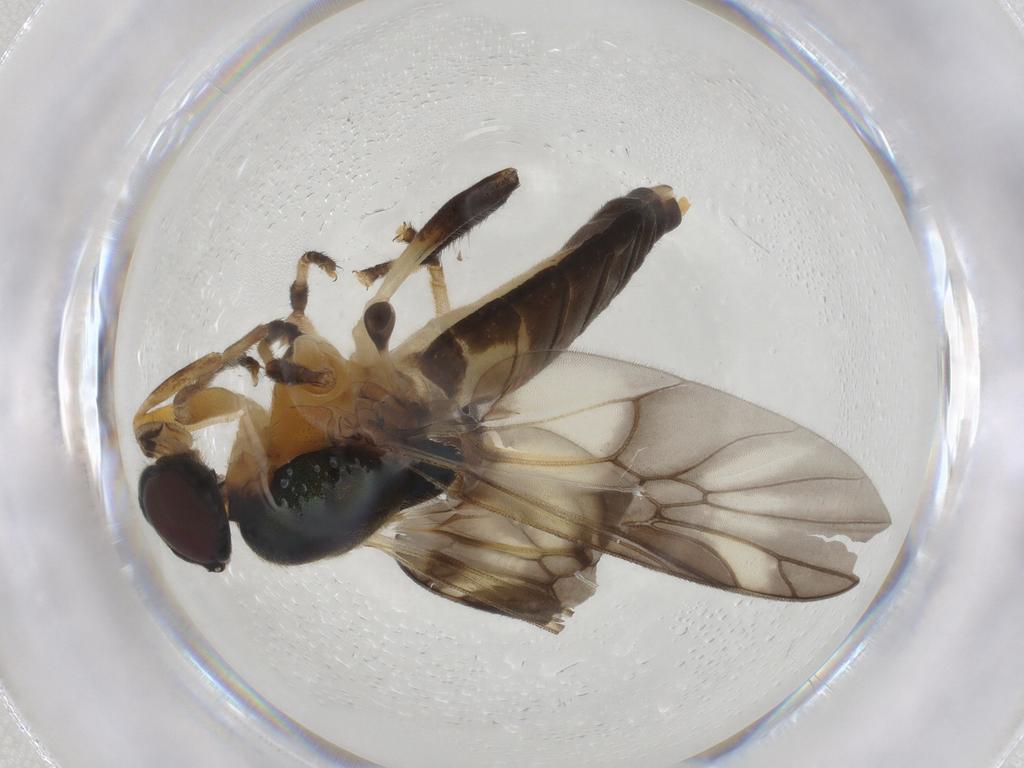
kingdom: Animalia
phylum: Arthropoda
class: Insecta
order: Diptera
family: Stratiomyidae
